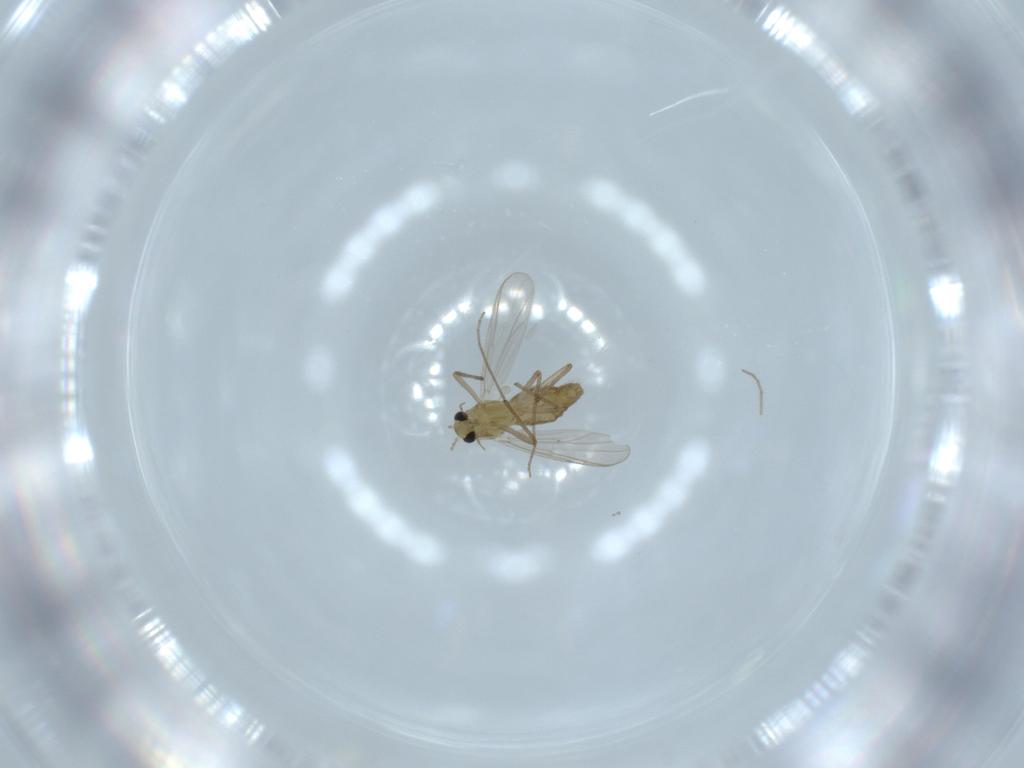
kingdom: Animalia
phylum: Arthropoda
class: Insecta
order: Diptera
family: Chironomidae
